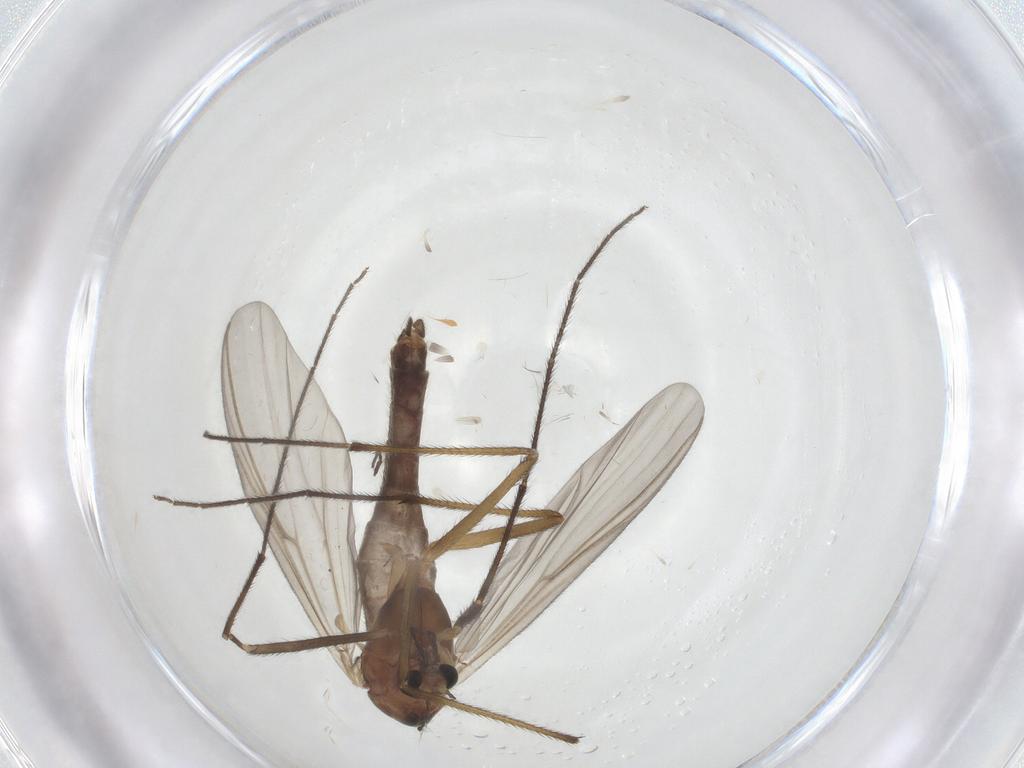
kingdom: Animalia
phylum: Arthropoda
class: Insecta
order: Diptera
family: Chironomidae
